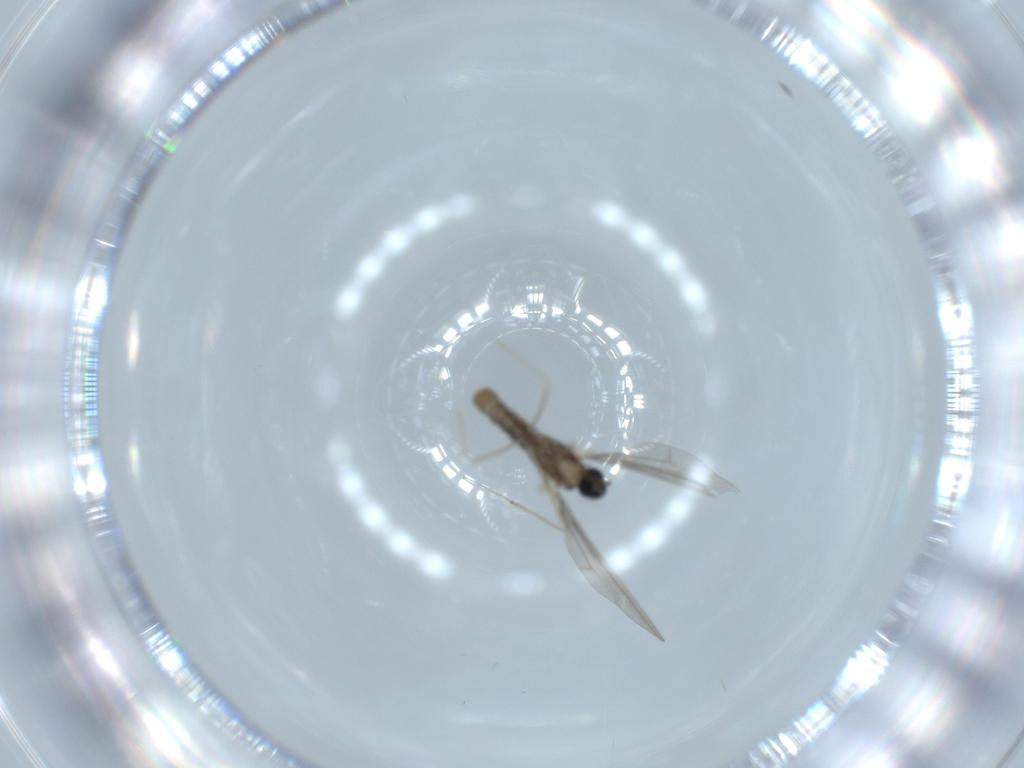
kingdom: Animalia
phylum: Arthropoda
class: Insecta
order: Diptera
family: Cecidomyiidae
